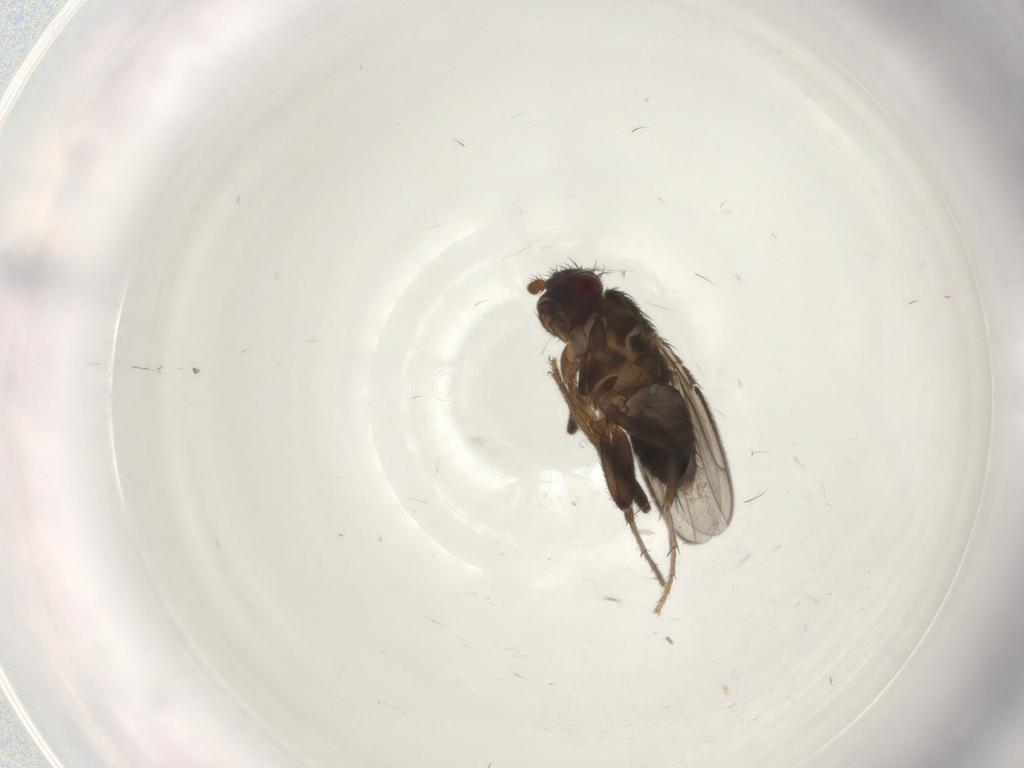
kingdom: Animalia
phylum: Arthropoda
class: Insecta
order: Diptera
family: Sphaeroceridae
